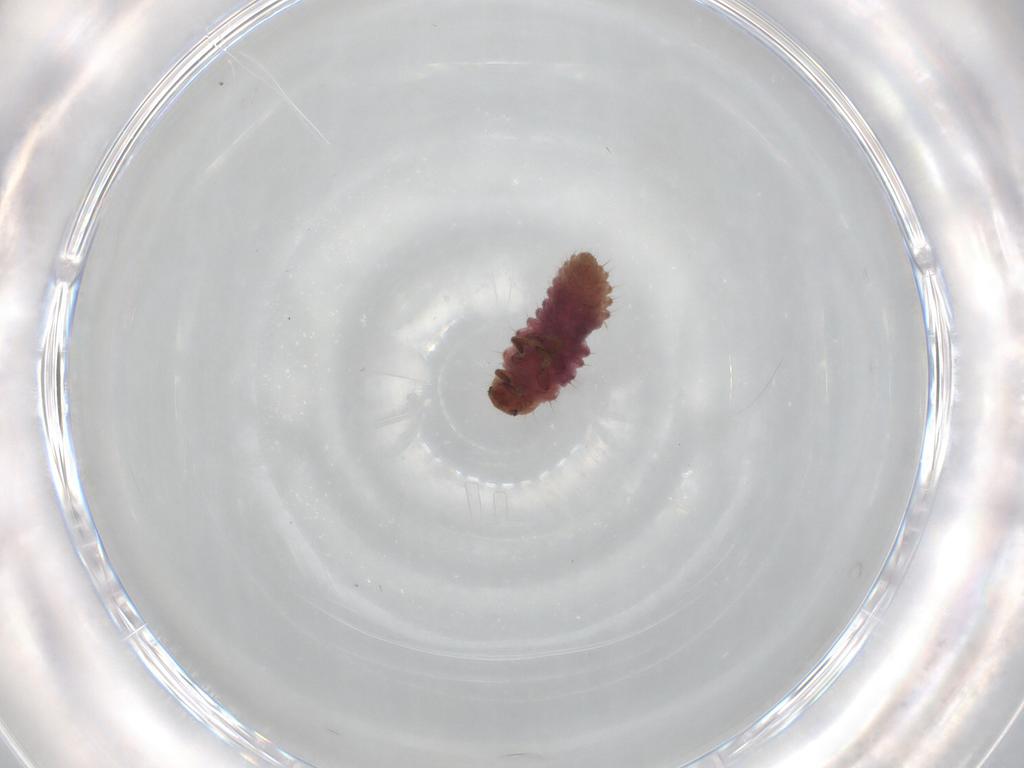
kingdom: Animalia
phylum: Arthropoda
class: Insecta
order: Coleoptera
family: Coccinellidae
